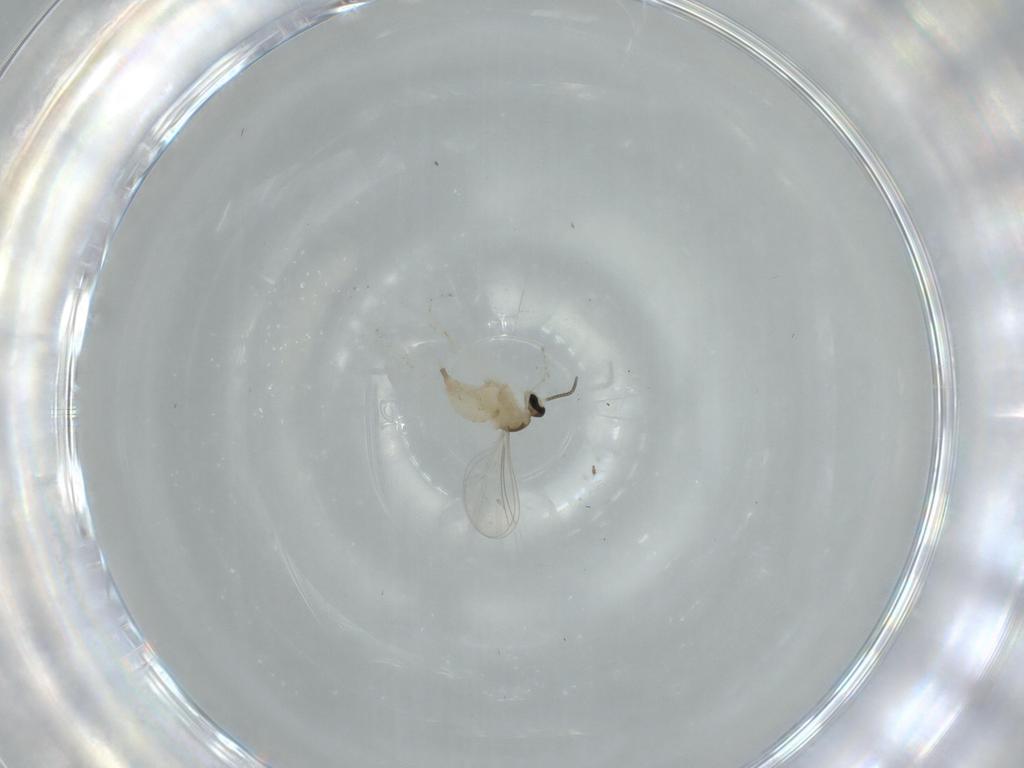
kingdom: Animalia
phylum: Arthropoda
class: Insecta
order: Diptera
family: Cecidomyiidae
